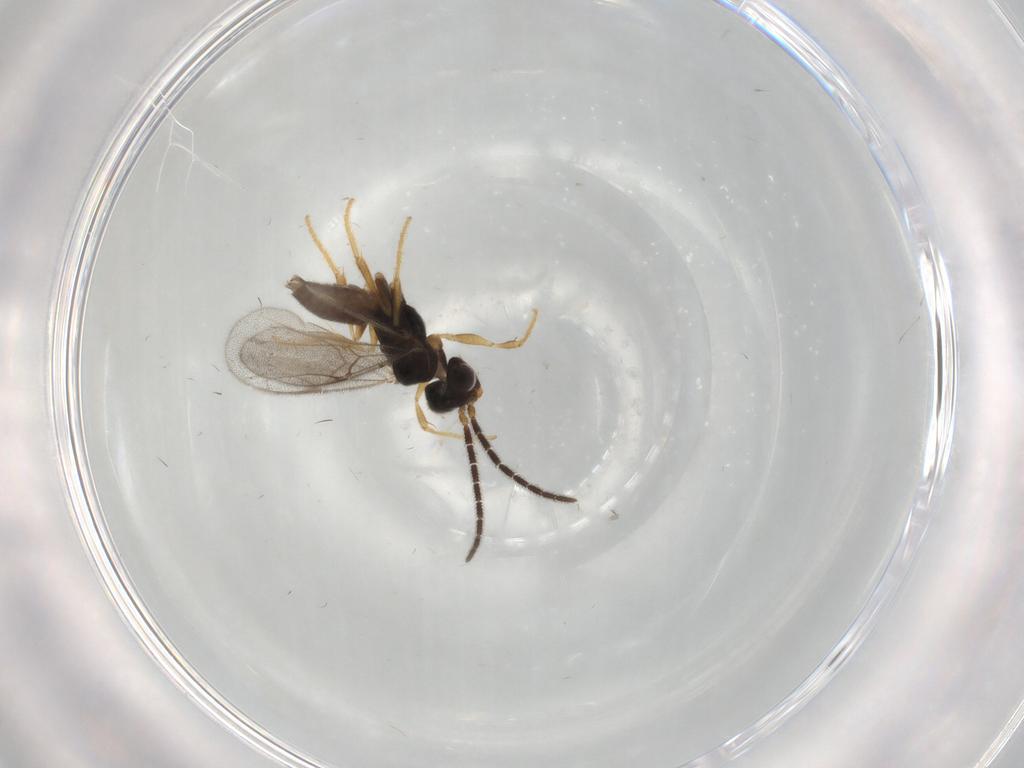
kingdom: Animalia
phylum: Arthropoda
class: Insecta
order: Hymenoptera
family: Dryinidae
